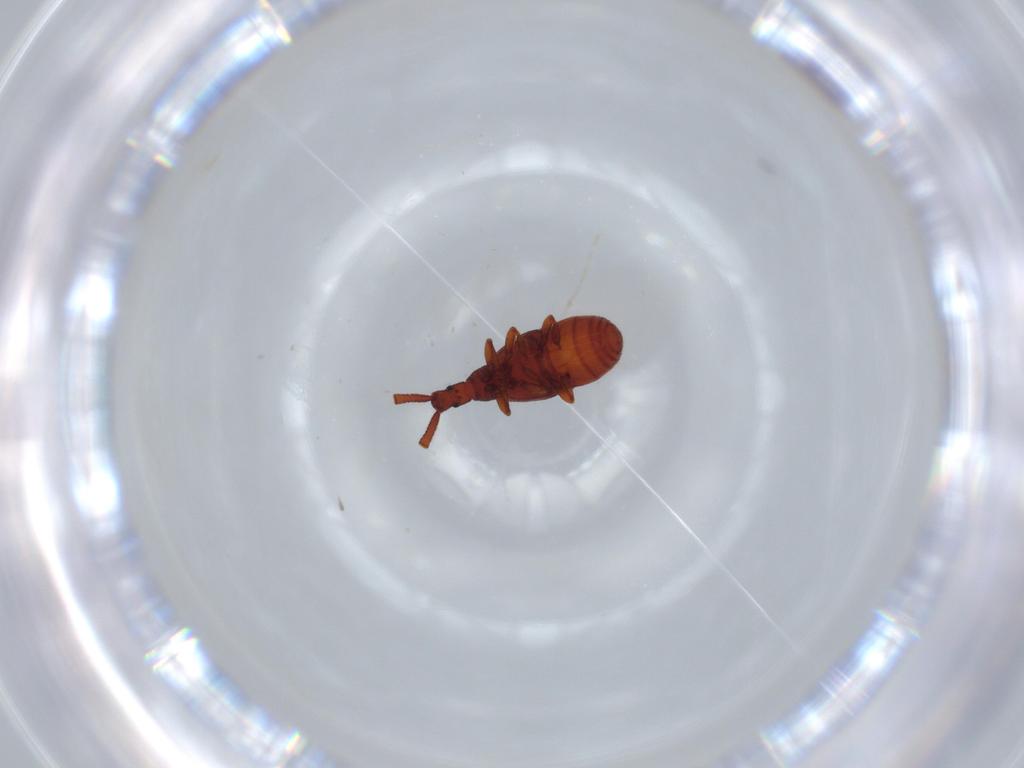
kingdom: Animalia
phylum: Arthropoda
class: Insecta
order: Coleoptera
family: Staphylinidae
